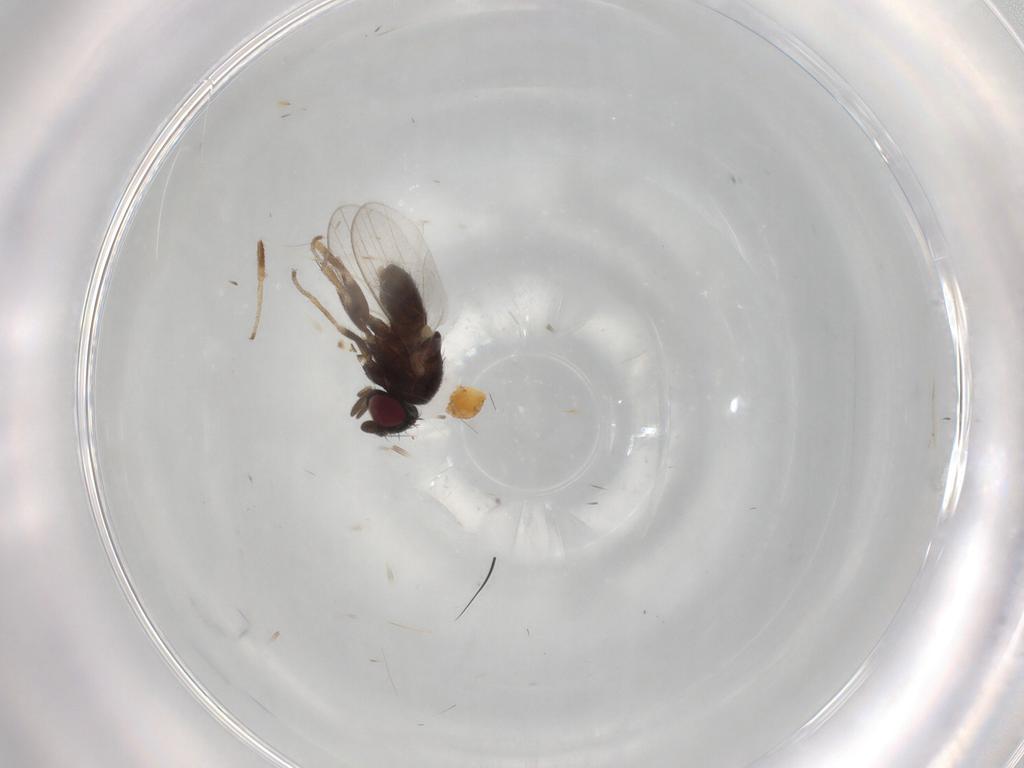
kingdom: Animalia
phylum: Arthropoda
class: Insecta
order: Diptera
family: Milichiidae
